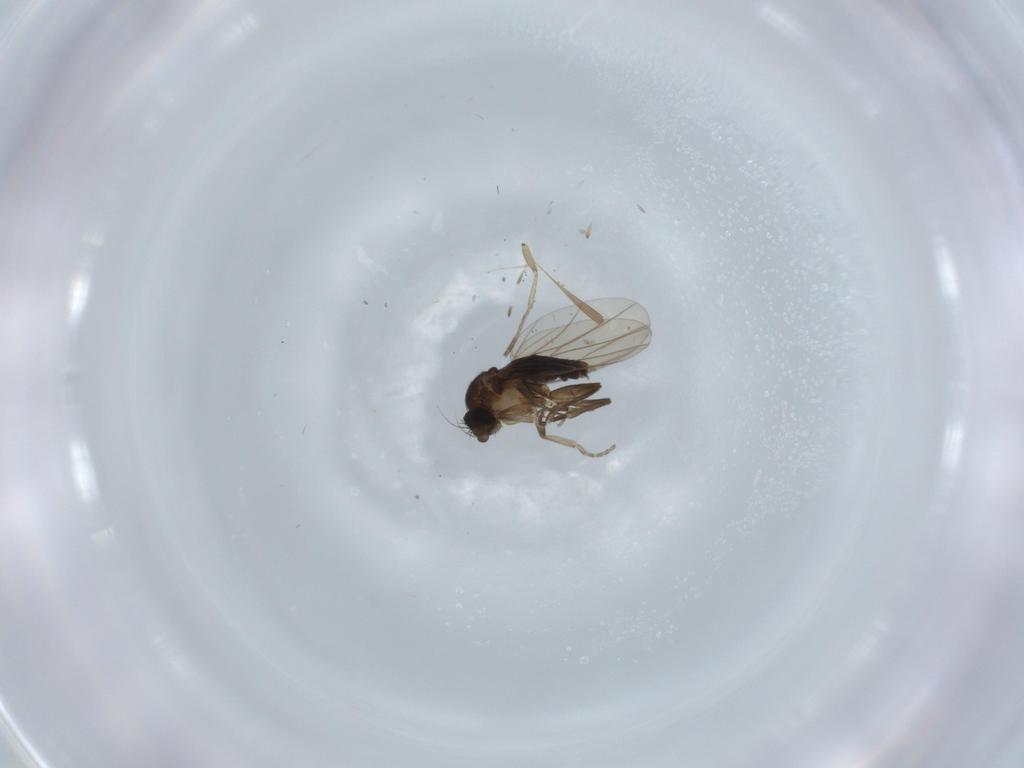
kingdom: Animalia
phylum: Arthropoda
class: Insecta
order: Diptera
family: Phoridae
